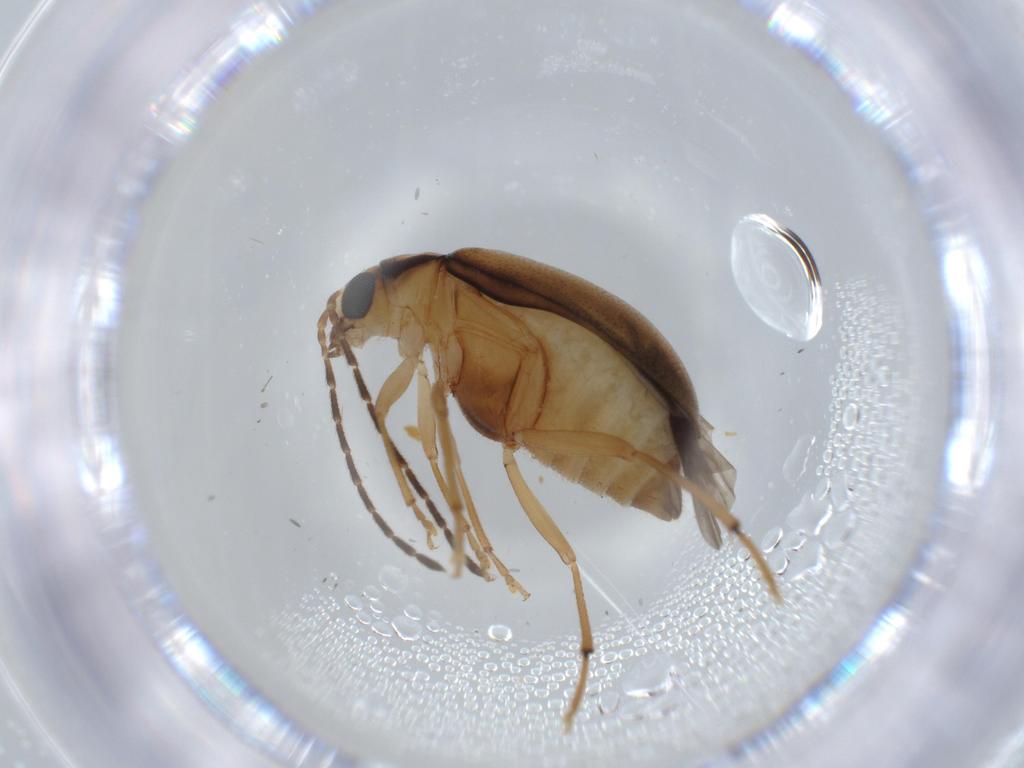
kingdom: Animalia
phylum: Arthropoda
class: Insecta
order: Coleoptera
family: Chrysomelidae
